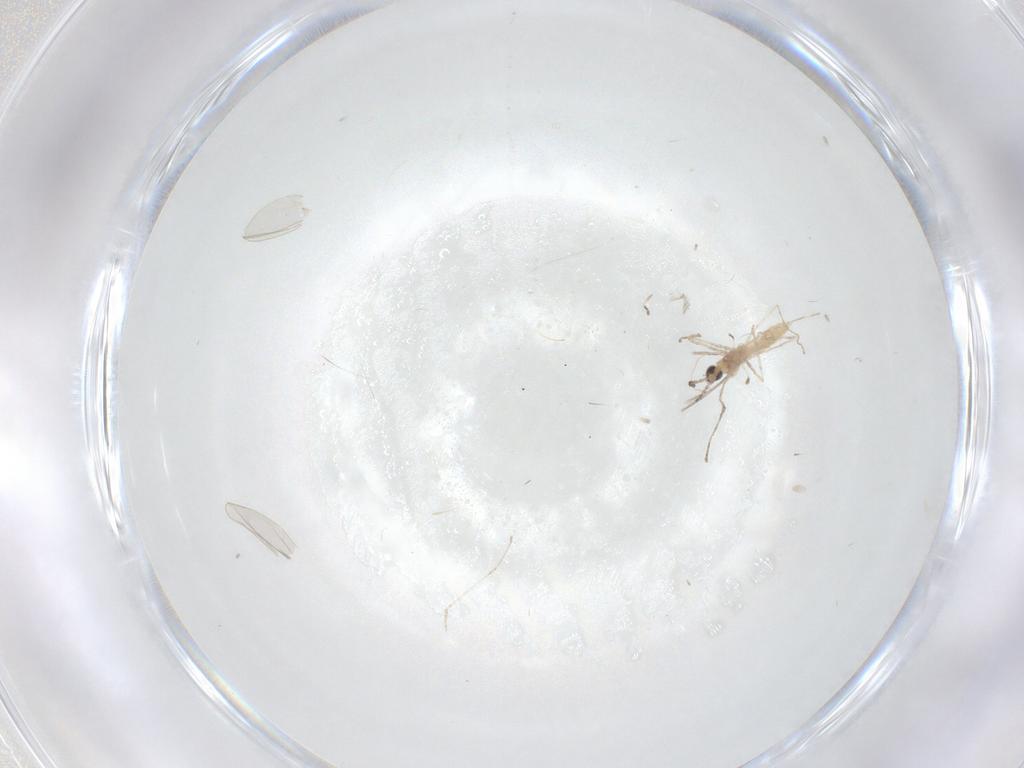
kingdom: Animalia
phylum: Arthropoda
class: Insecta
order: Diptera
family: Cecidomyiidae
